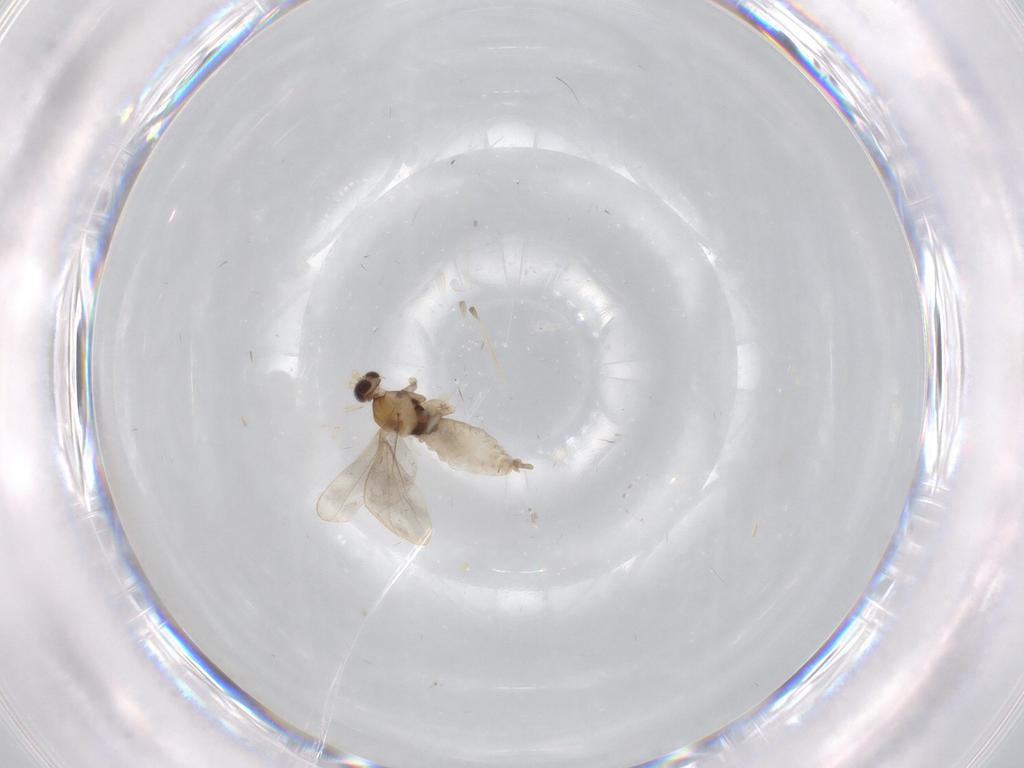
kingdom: Animalia
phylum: Arthropoda
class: Insecta
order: Diptera
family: Cecidomyiidae
